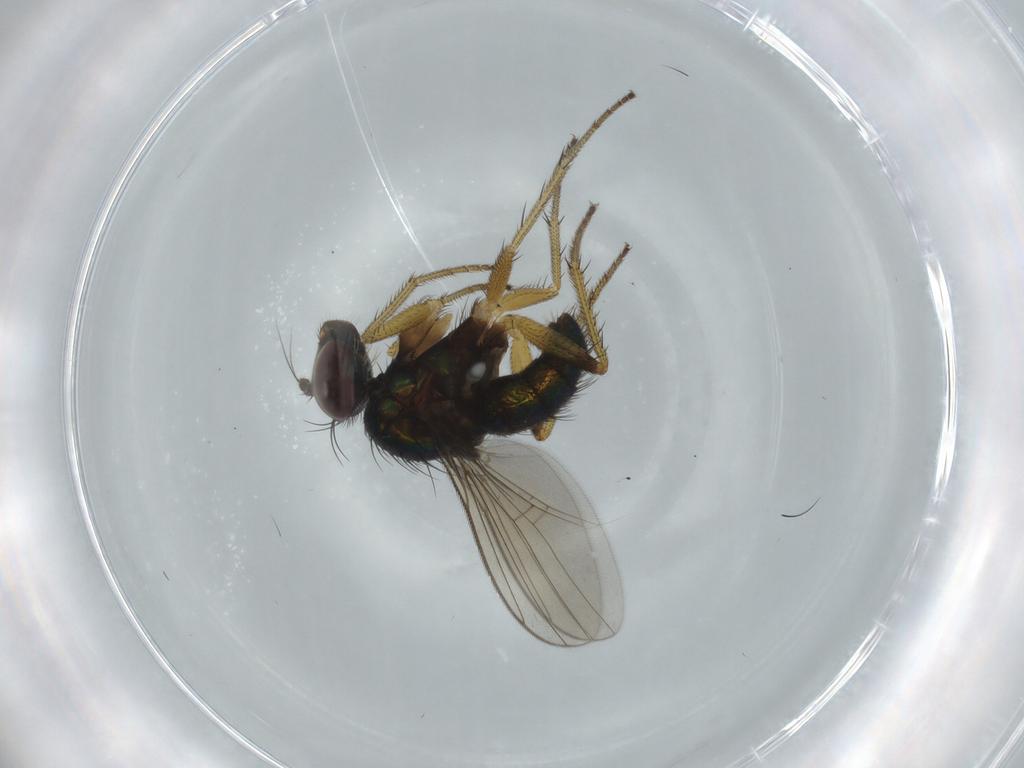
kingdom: Animalia
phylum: Arthropoda
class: Insecta
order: Diptera
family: Dolichopodidae
